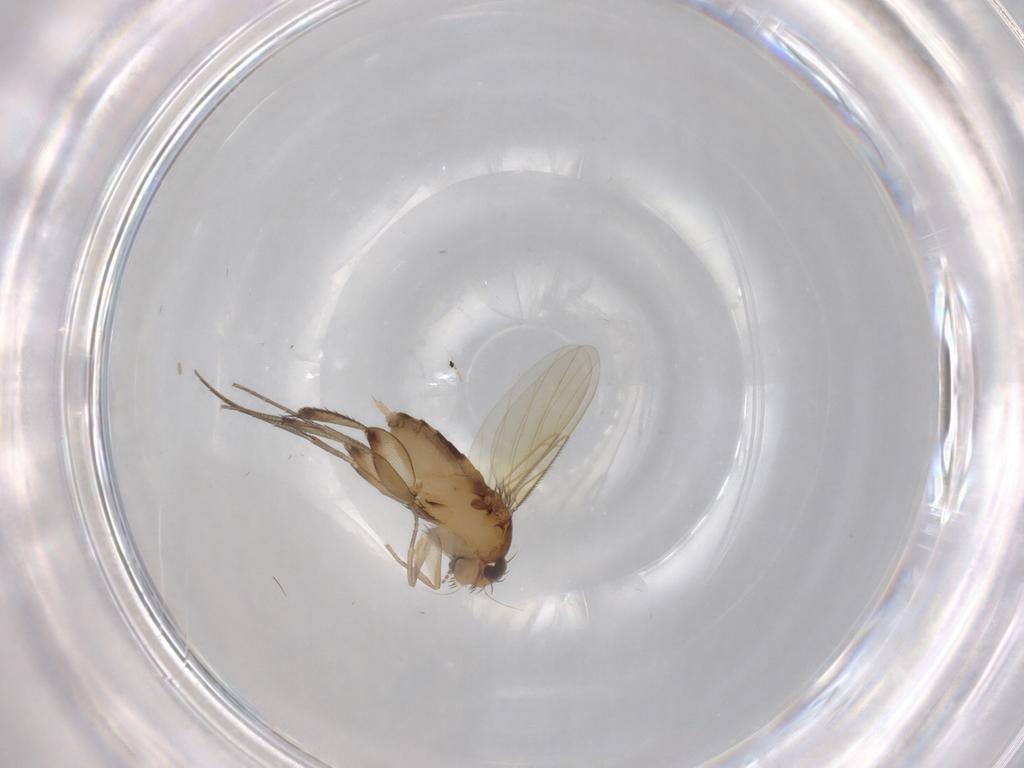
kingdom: Animalia
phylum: Arthropoda
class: Insecta
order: Diptera
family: Phoridae
